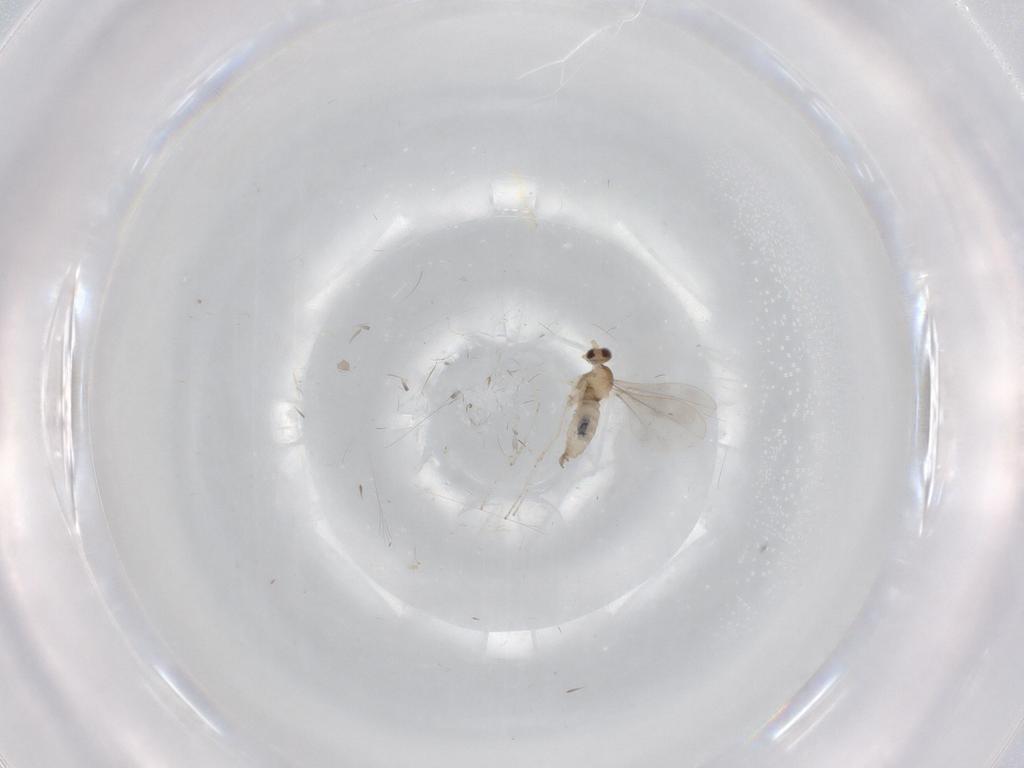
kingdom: Animalia
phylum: Arthropoda
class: Insecta
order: Diptera
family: Cecidomyiidae
